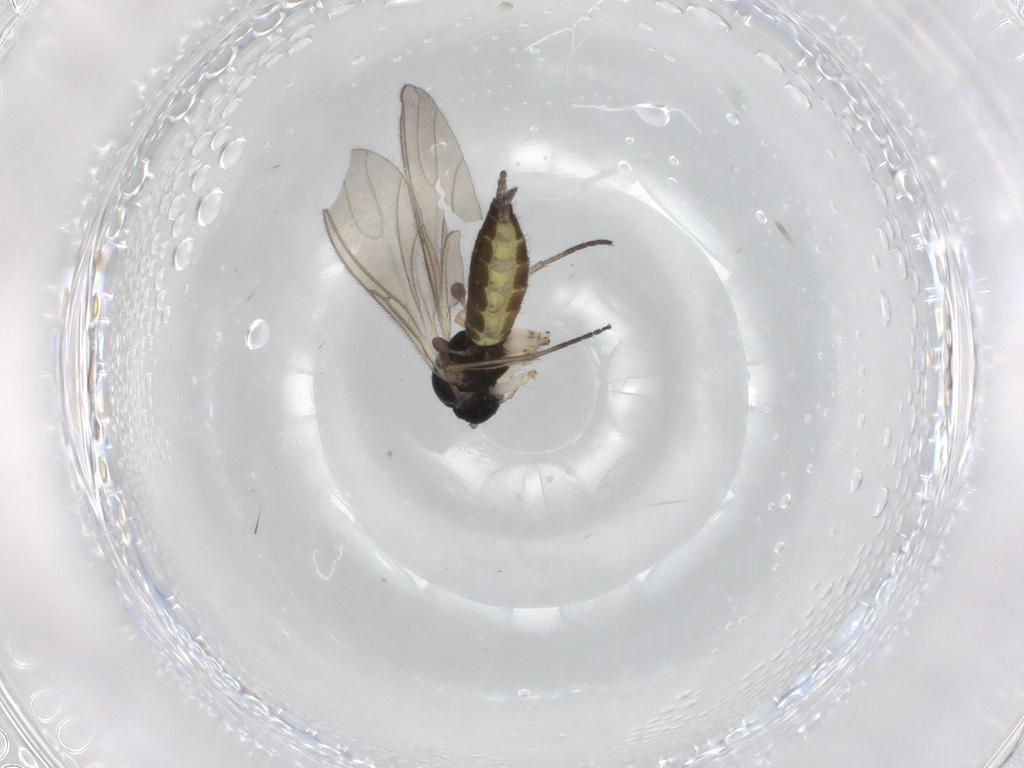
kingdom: Animalia
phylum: Arthropoda
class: Insecta
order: Diptera
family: Sciaridae
